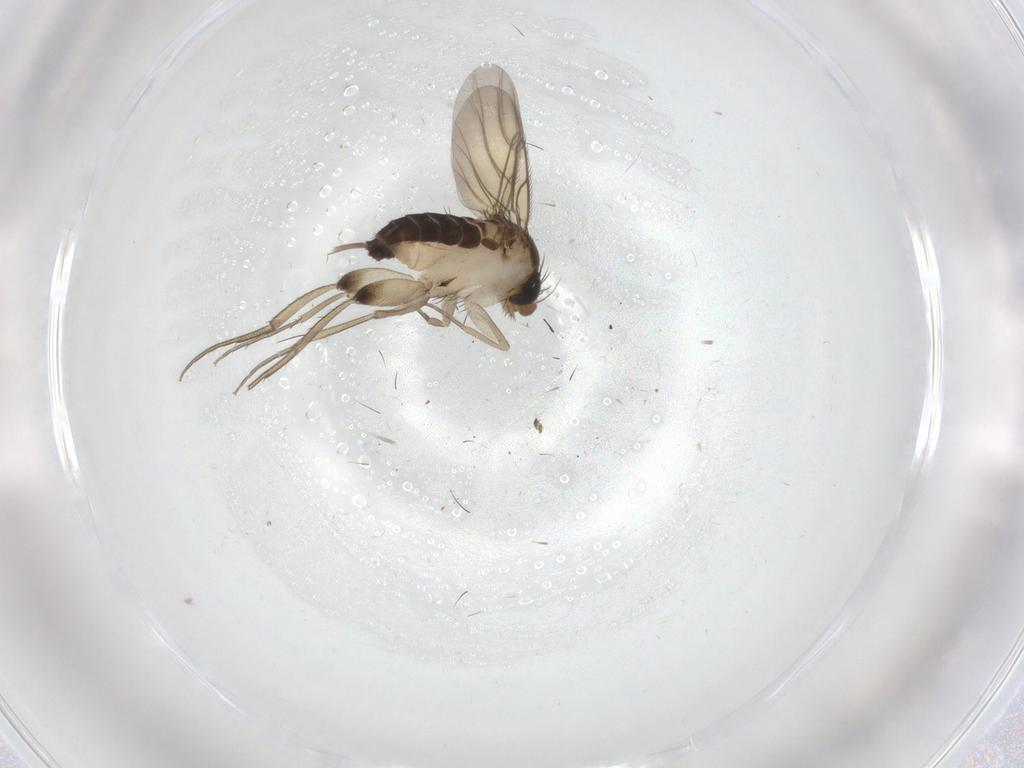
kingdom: Animalia
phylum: Arthropoda
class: Insecta
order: Diptera
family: Phoridae
